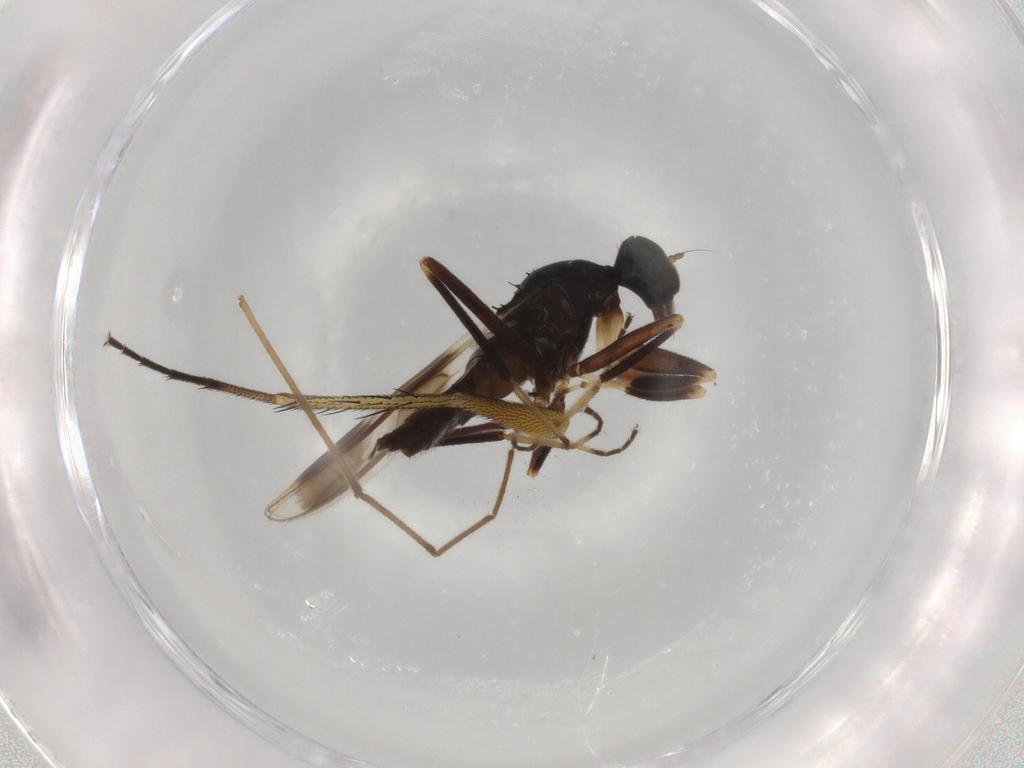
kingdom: Animalia
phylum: Arthropoda
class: Insecta
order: Diptera
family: Hybotidae
